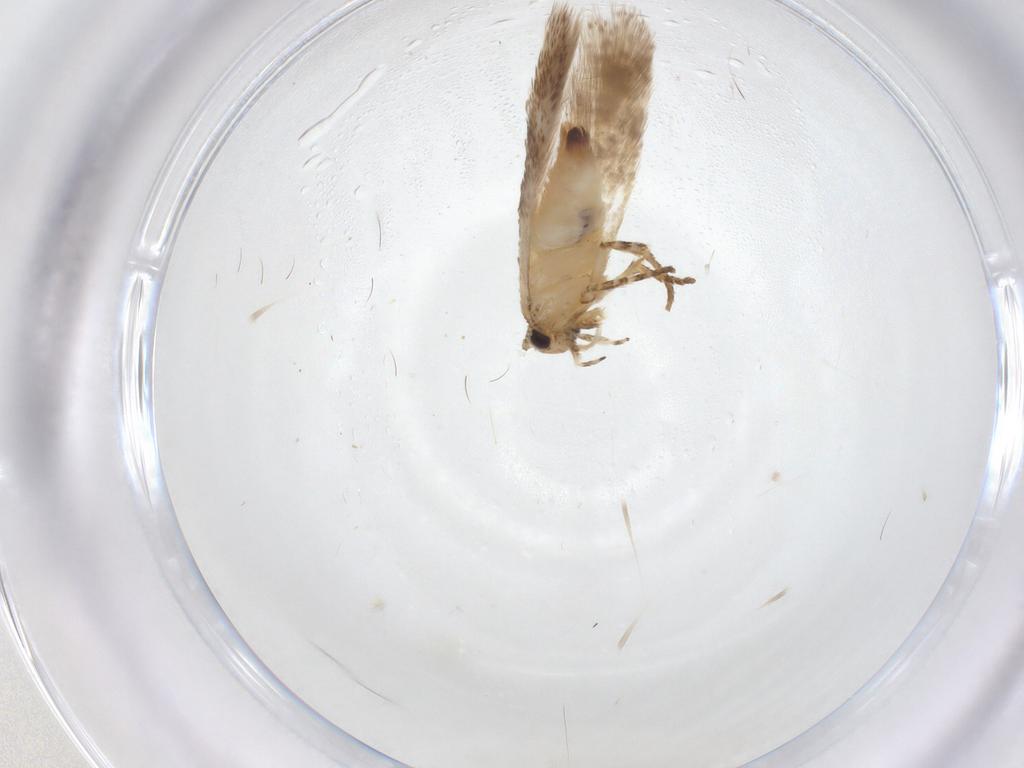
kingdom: Animalia
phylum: Arthropoda
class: Insecta
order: Lepidoptera
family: Gelechiidae
